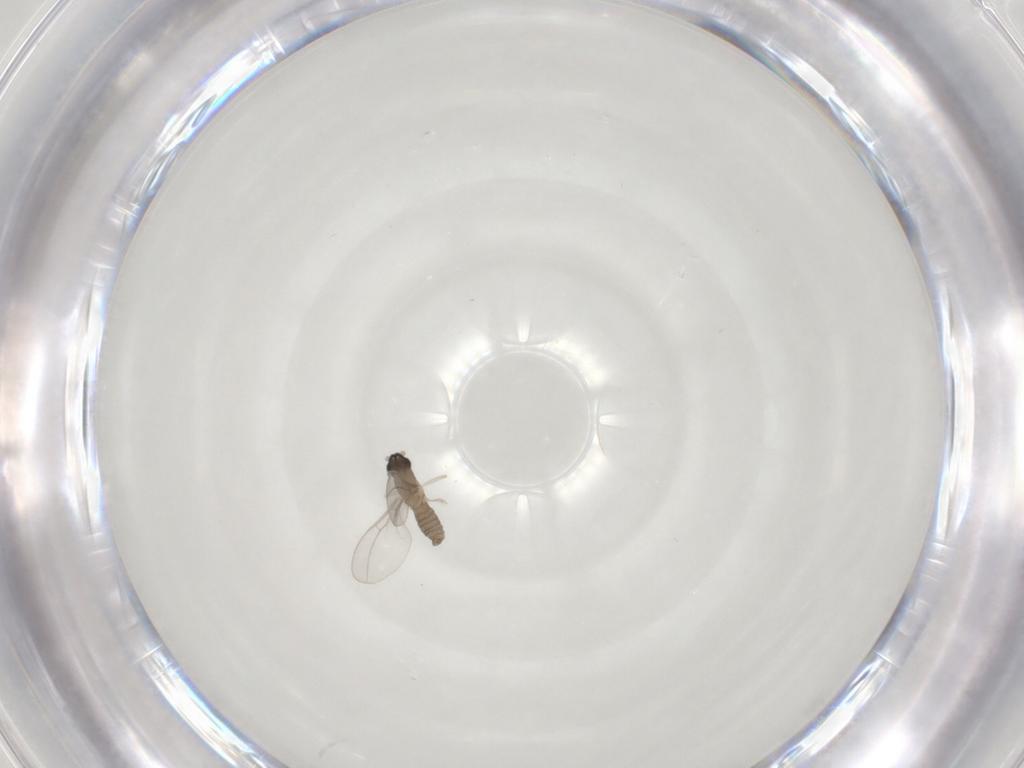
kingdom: Animalia
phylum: Arthropoda
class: Insecta
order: Diptera
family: Cecidomyiidae
